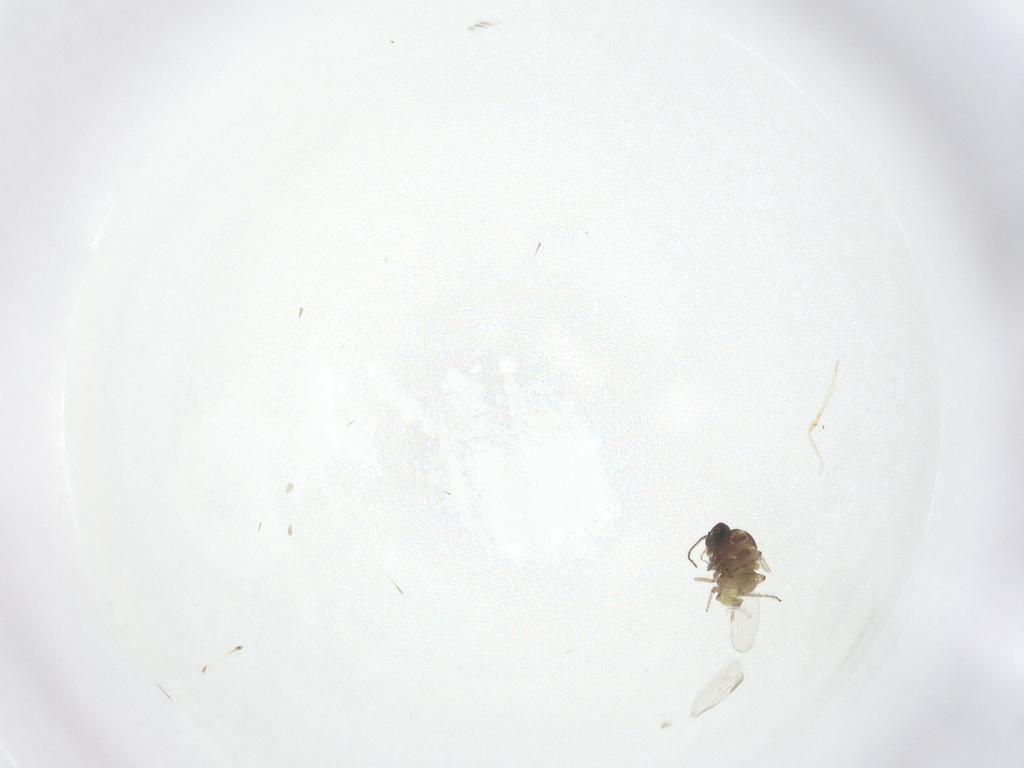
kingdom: Animalia
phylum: Arthropoda
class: Insecta
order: Diptera
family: Ceratopogonidae
